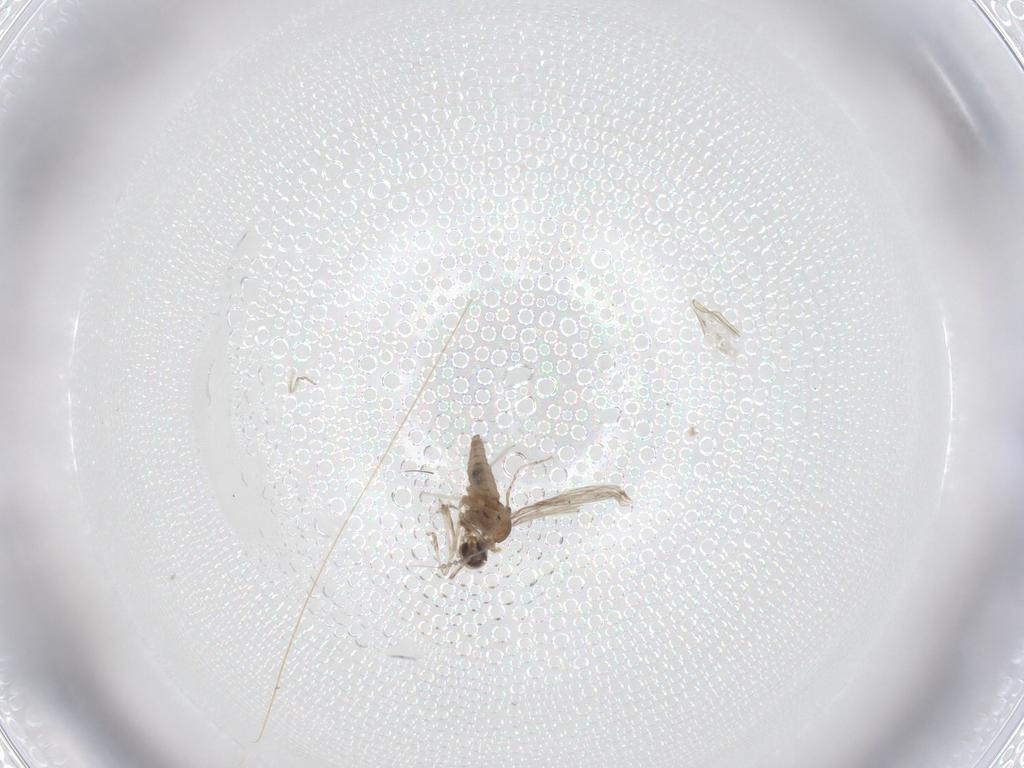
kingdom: Animalia
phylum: Arthropoda
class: Insecta
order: Diptera
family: Cecidomyiidae
